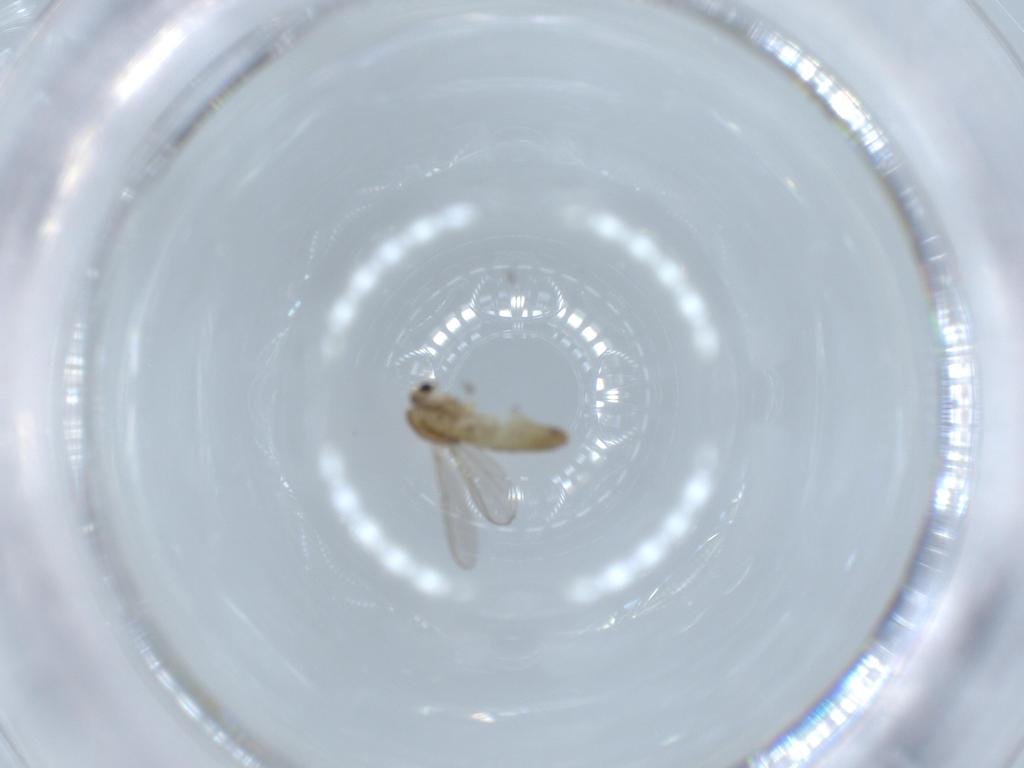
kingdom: Animalia
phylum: Arthropoda
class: Insecta
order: Diptera
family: Chironomidae
